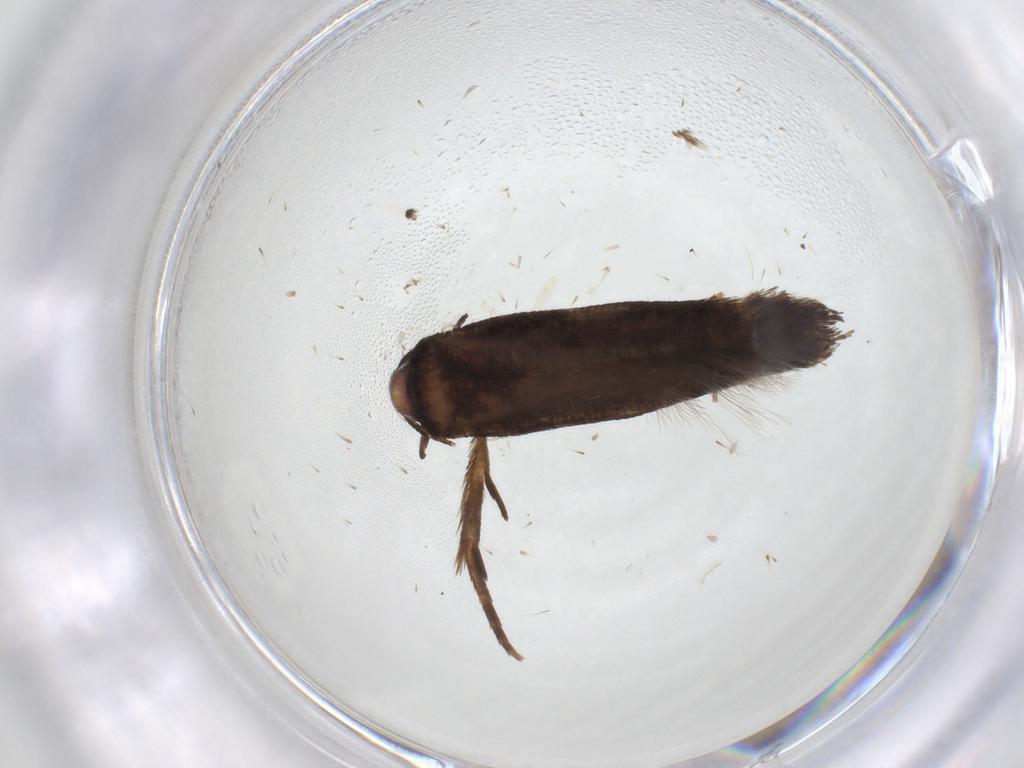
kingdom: Animalia
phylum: Arthropoda
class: Insecta
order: Lepidoptera
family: Cosmopterigidae
